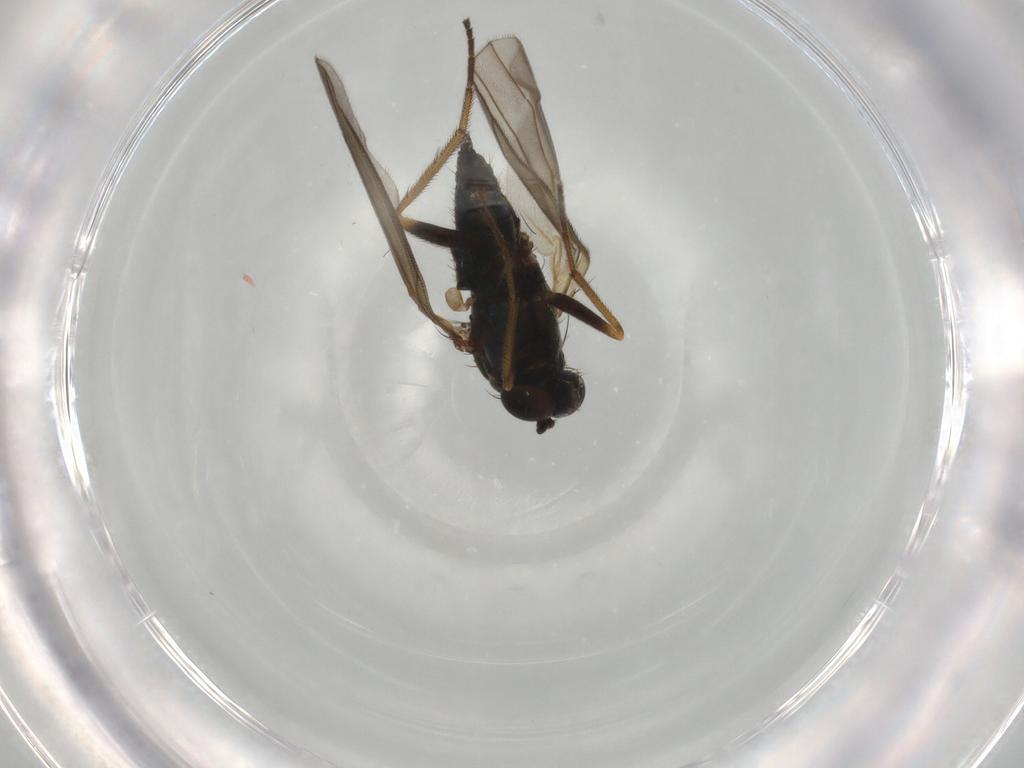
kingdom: Animalia
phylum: Arthropoda
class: Insecta
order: Diptera
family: Dolichopodidae
